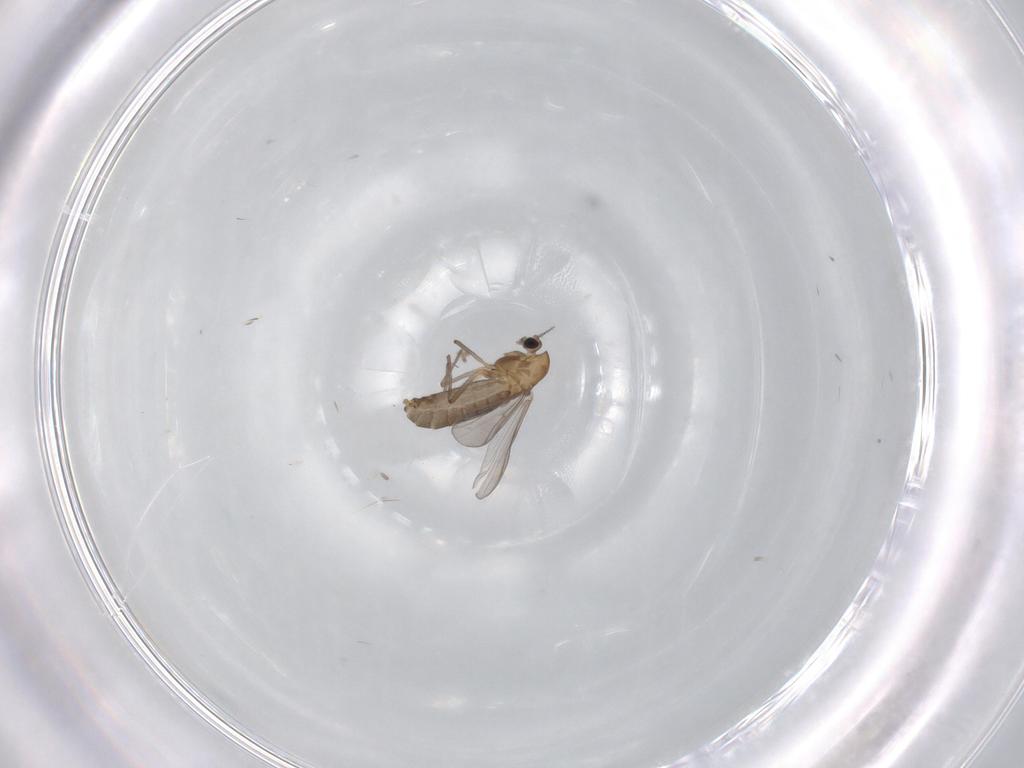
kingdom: Animalia
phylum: Arthropoda
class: Insecta
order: Diptera
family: Chironomidae
